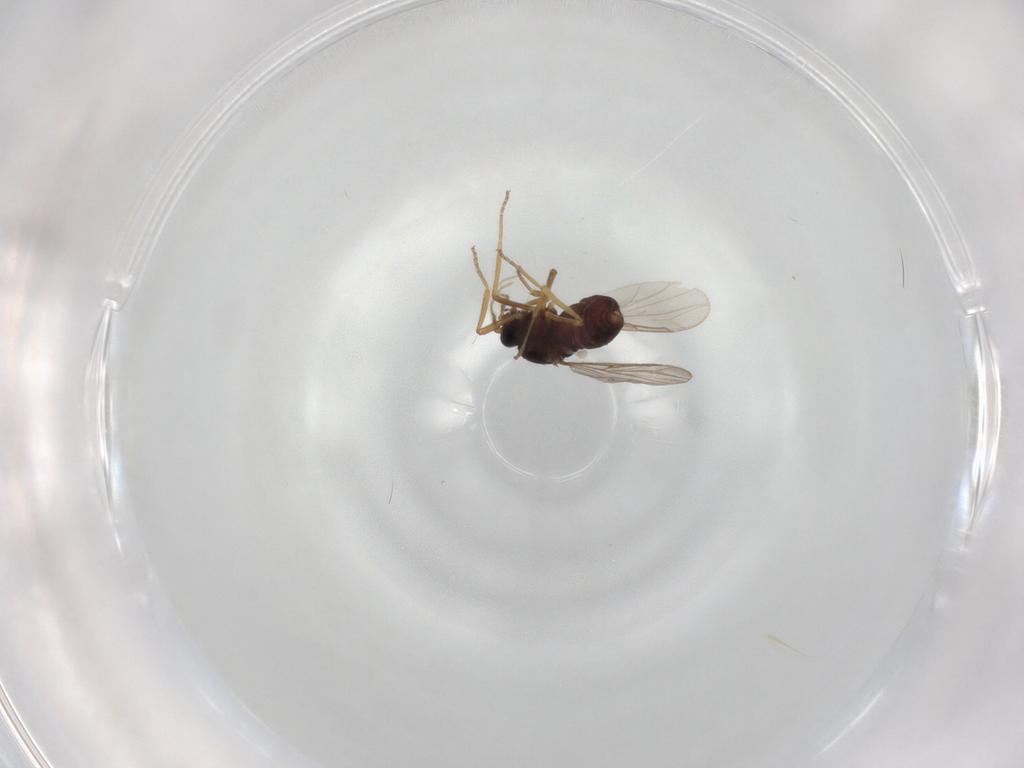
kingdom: Animalia
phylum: Arthropoda
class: Insecta
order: Diptera
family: Ceratopogonidae
